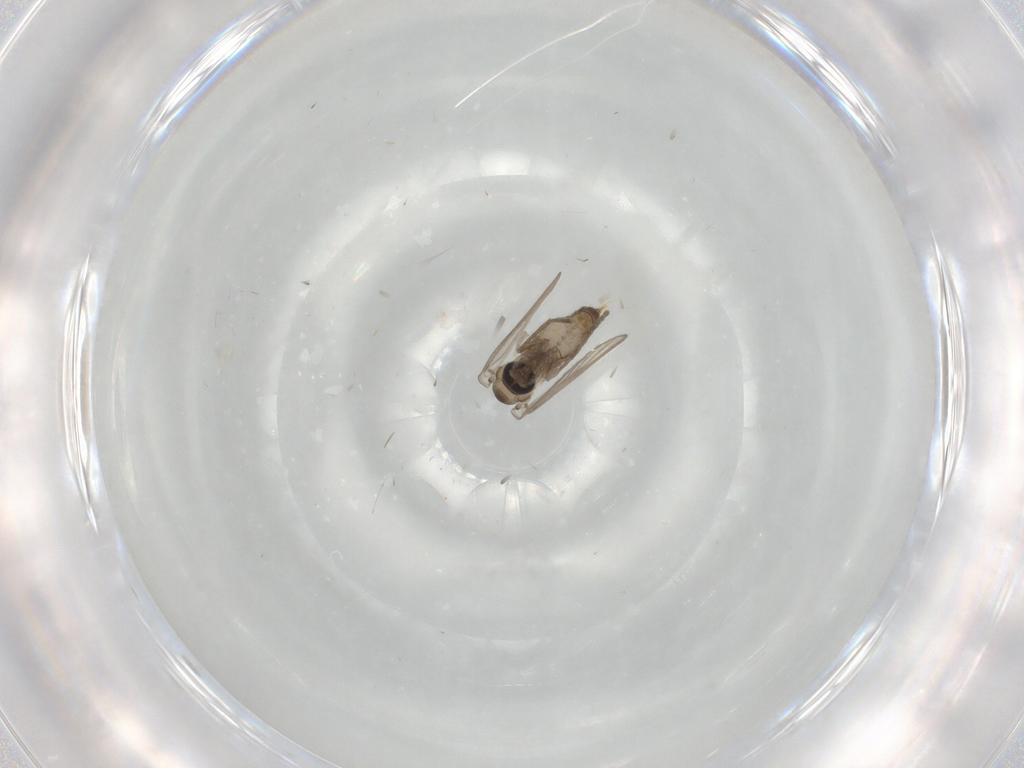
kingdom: Animalia
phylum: Arthropoda
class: Insecta
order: Diptera
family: Psychodidae
